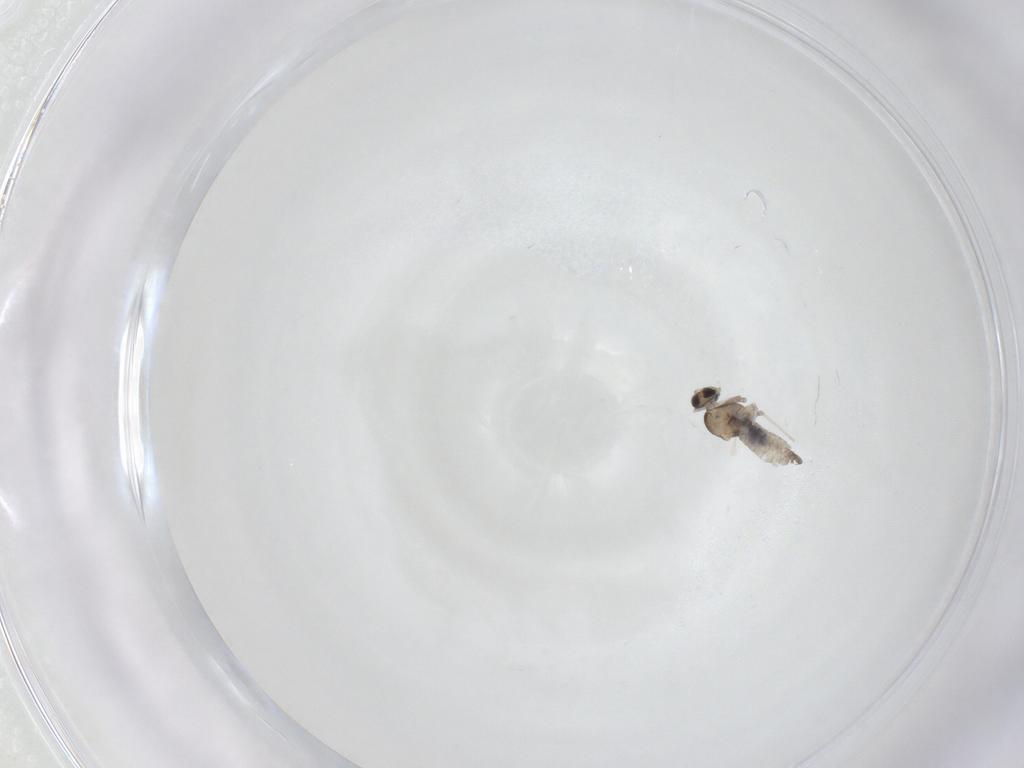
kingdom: Animalia
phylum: Arthropoda
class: Insecta
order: Diptera
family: Cecidomyiidae
